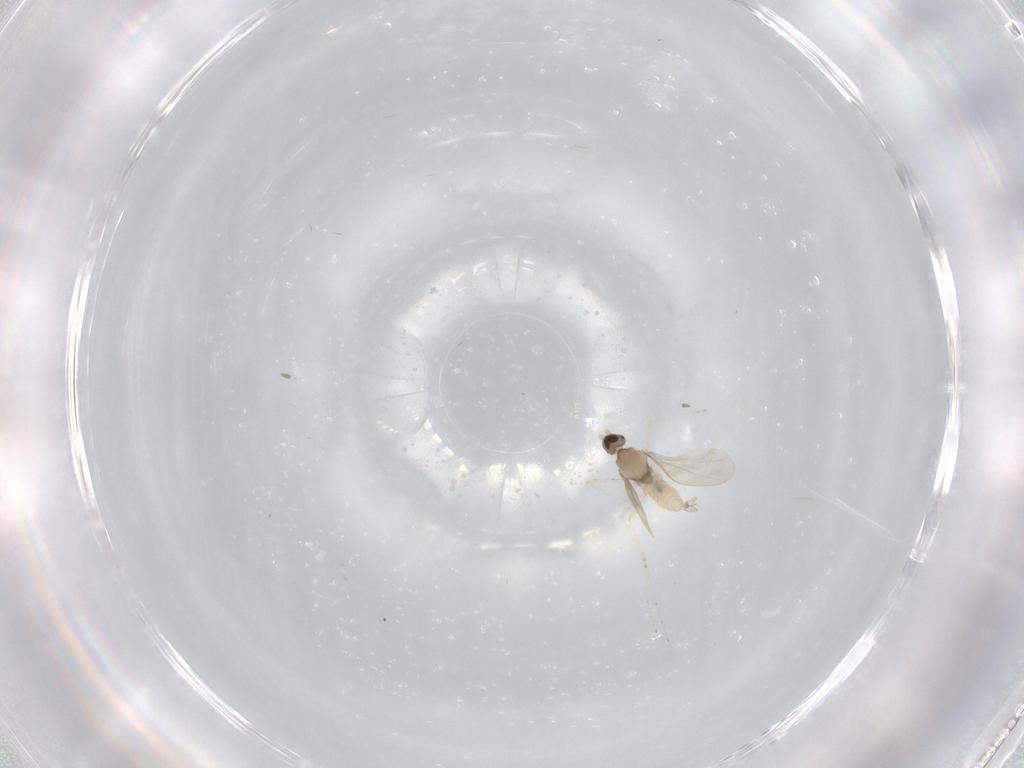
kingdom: Animalia
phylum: Arthropoda
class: Insecta
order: Diptera
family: Cecidomyiidae
